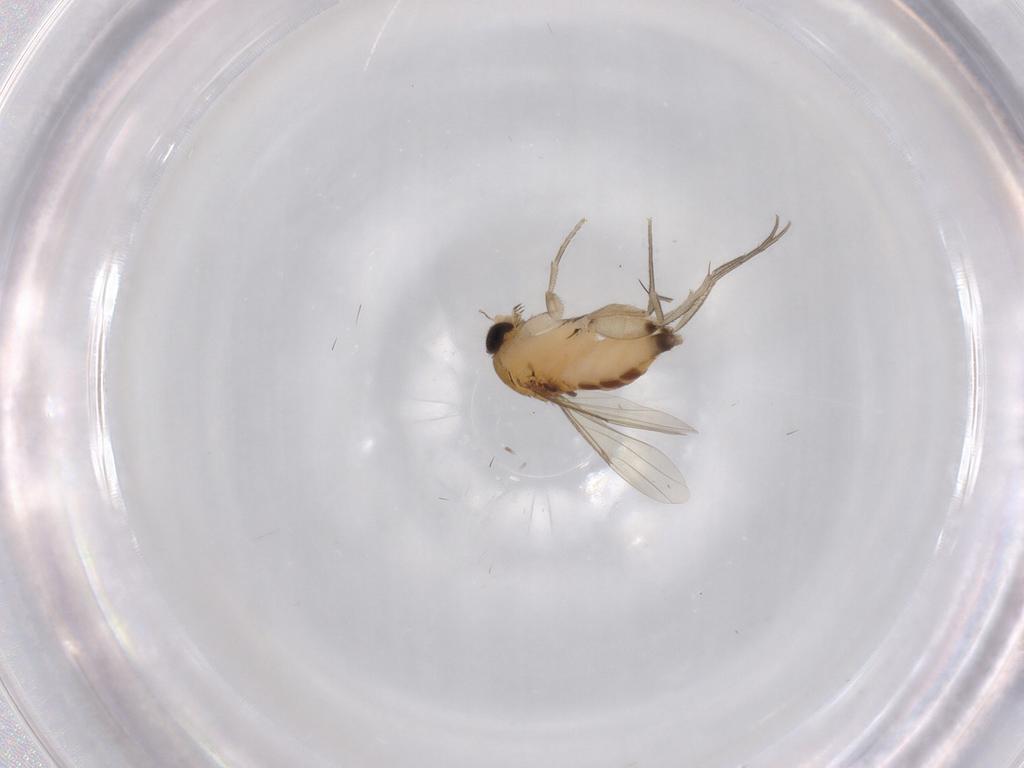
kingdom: Animalia
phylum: Arthropoda
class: Insecta
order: Diptera
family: Phoridae
